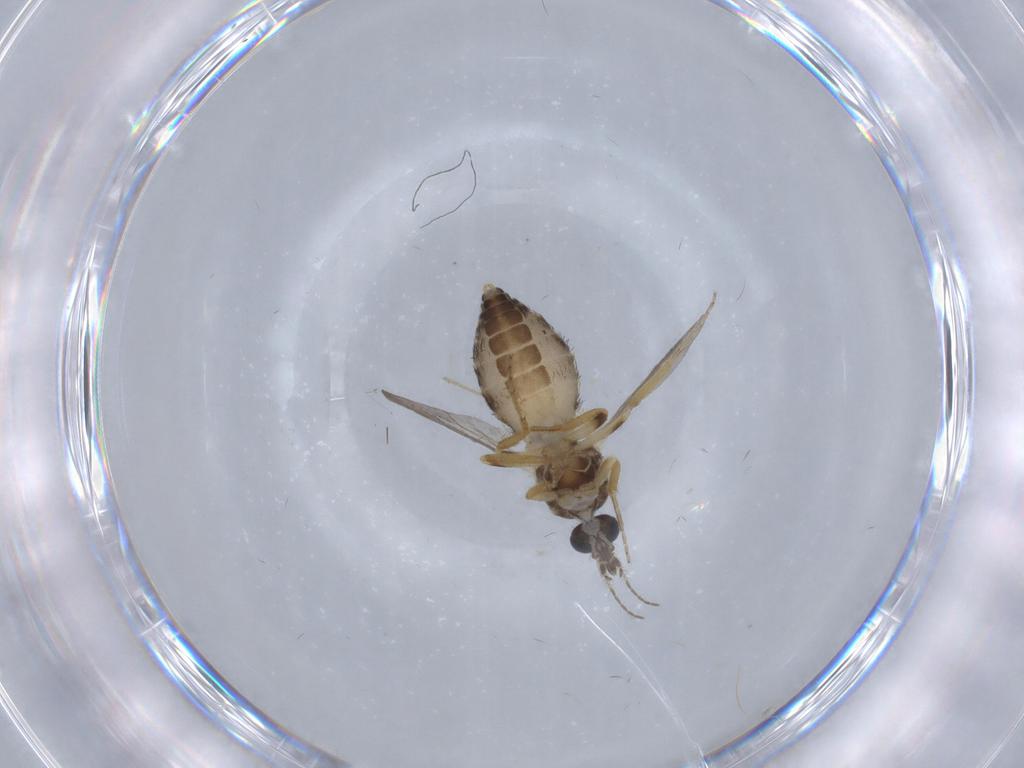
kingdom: Animalia
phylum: Arthropoda
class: Insecta
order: Diptera
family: Ceratopogonidae
